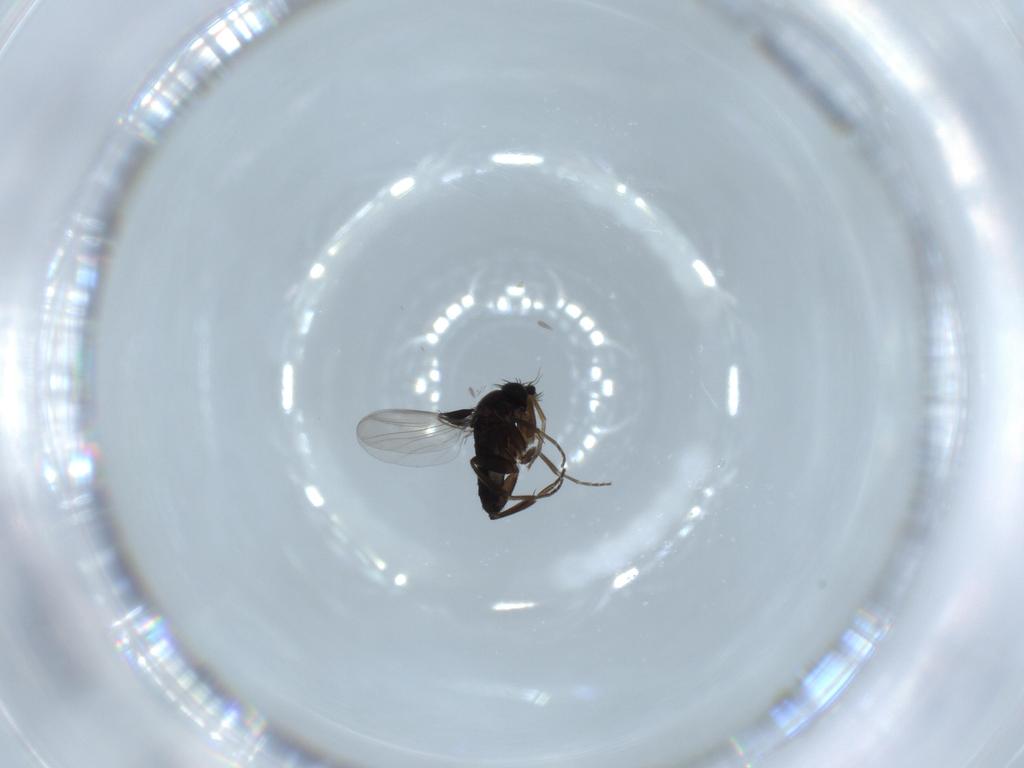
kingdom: Animalia
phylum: Arthropoda
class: Insecta
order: Diptera
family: Phoridae
